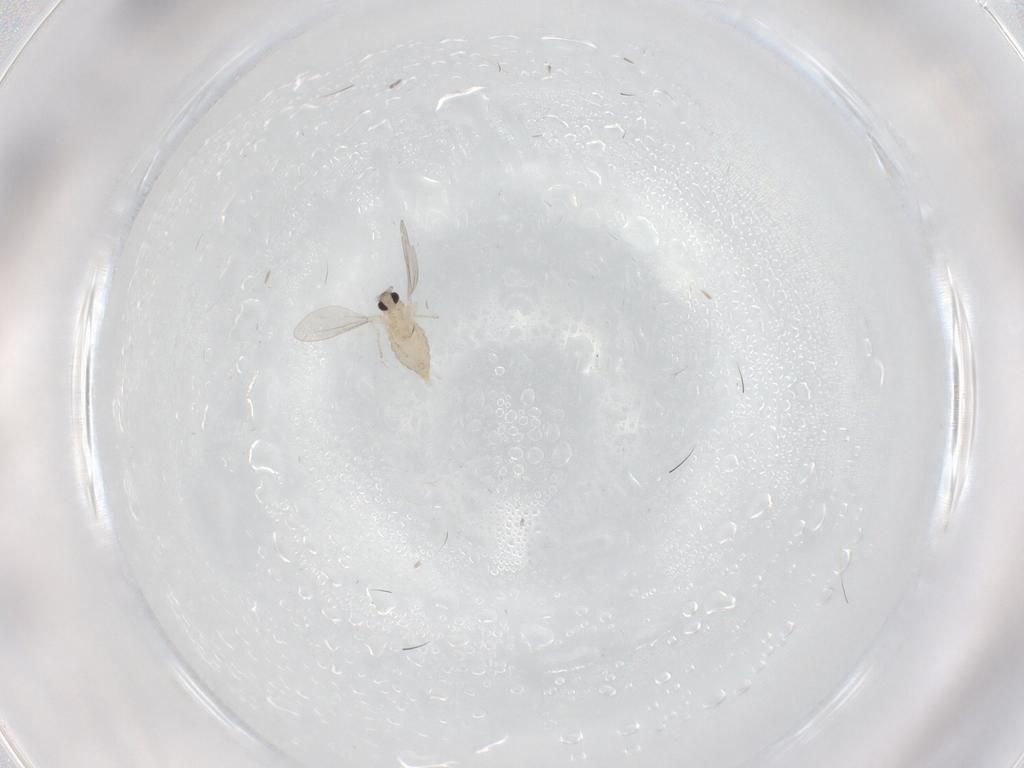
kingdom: Animalia
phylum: Arthropoda
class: Insecta
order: Diptera
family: Cecidomyiidae
